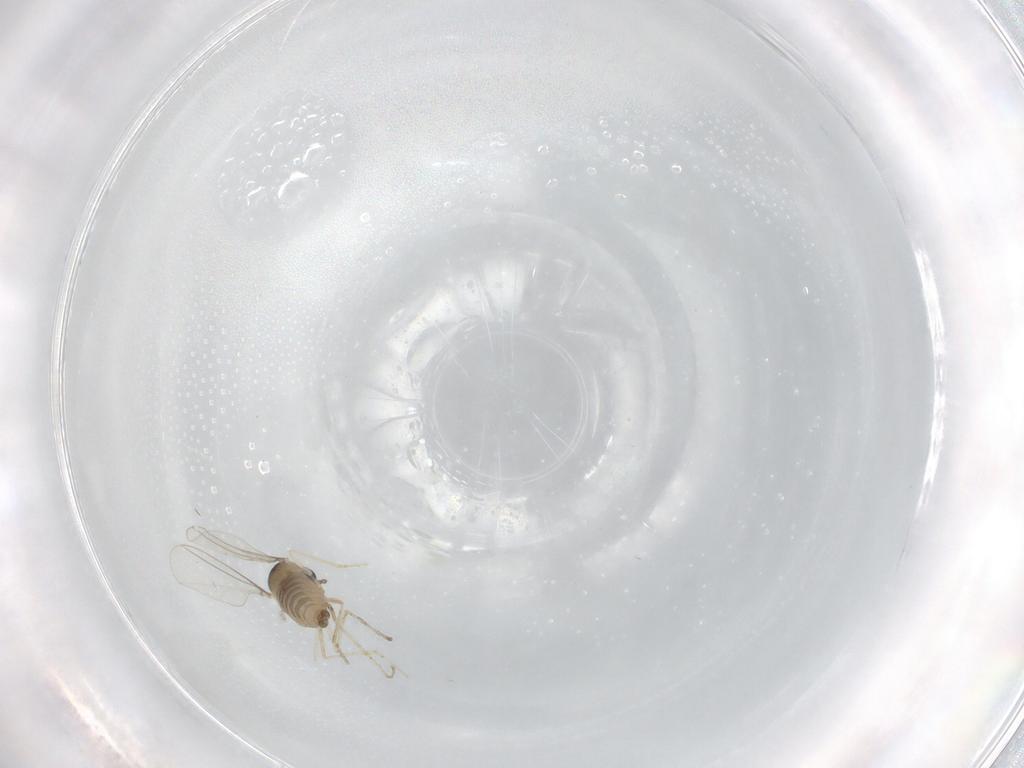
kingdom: Animalia
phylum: Arthropoda
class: Insecta
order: Diptera
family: Cecidomyiidae
